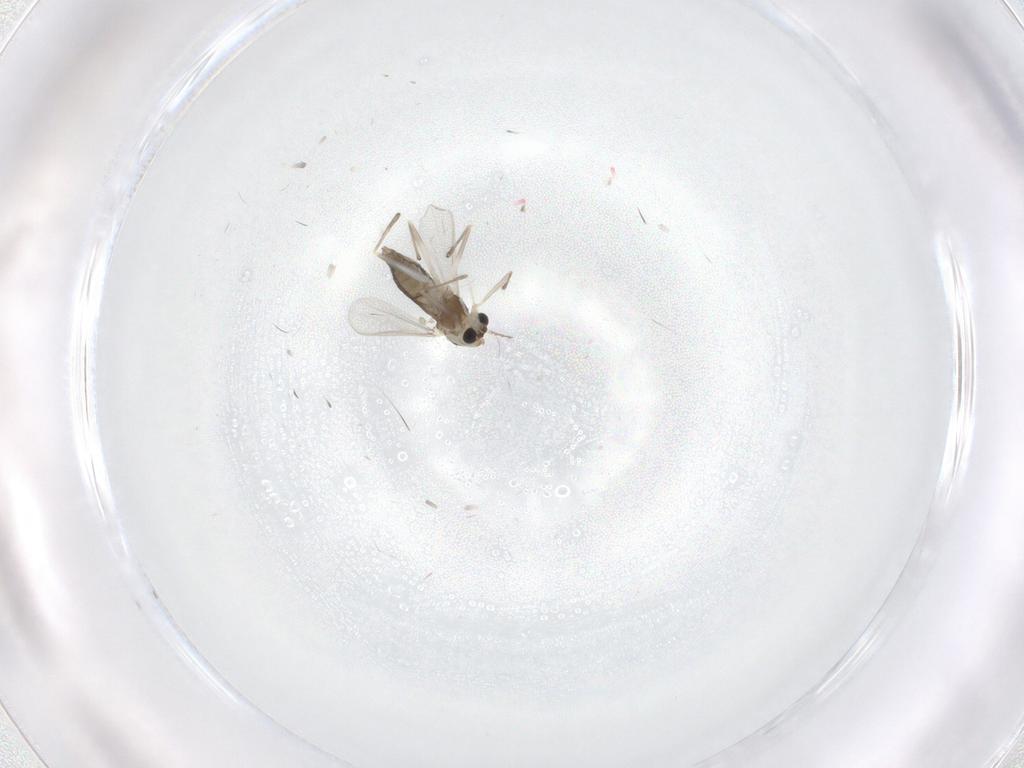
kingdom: Animalia
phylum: Arthropoda
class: Insecta
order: Diptera
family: Chironomidae
